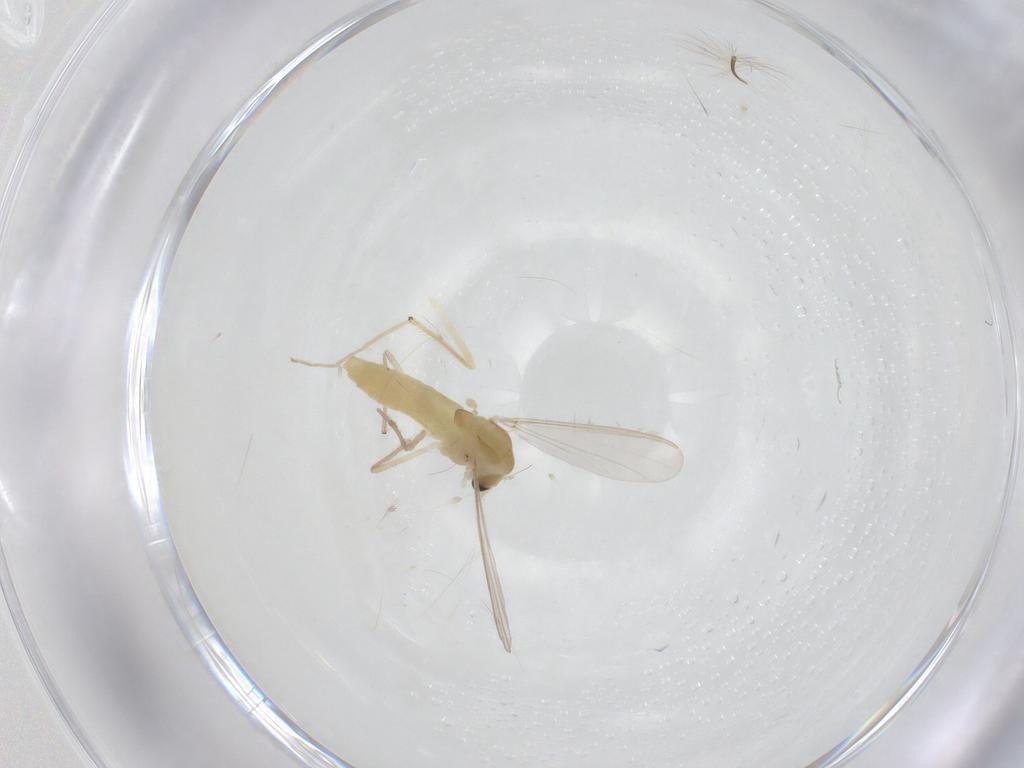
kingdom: Animalia
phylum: Arthropoda
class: Insecta
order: Diptera
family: Chironomidae
